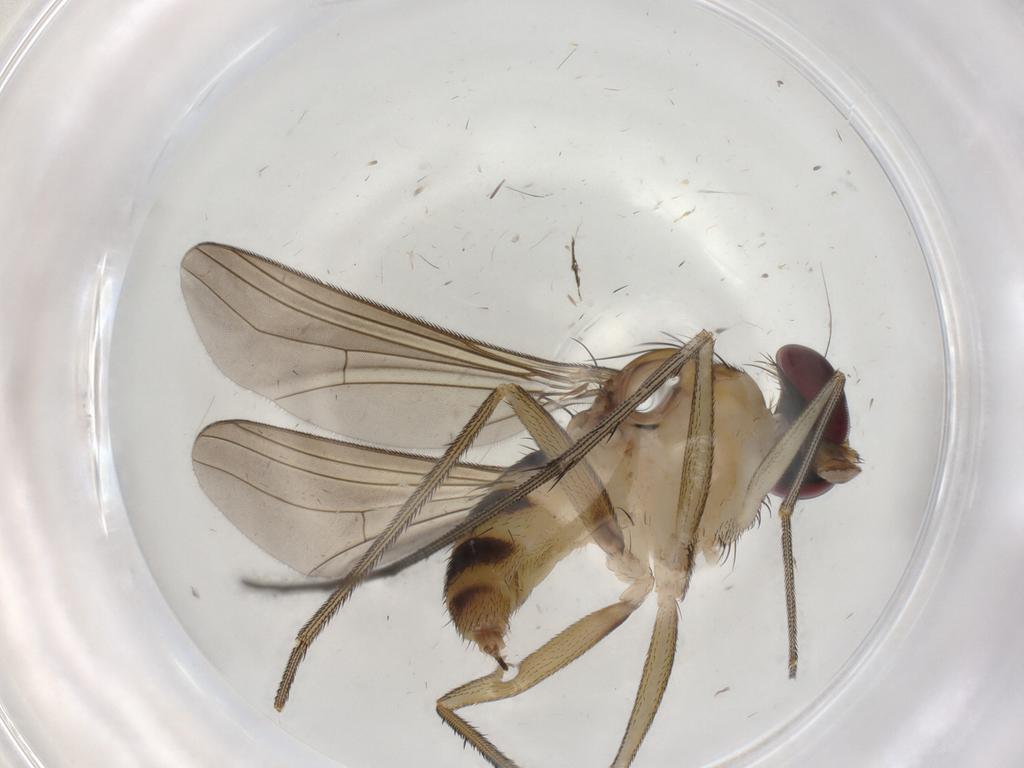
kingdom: Animalia
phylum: Arthropoda
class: Insecta
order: Diptera
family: Dolichopodidae
